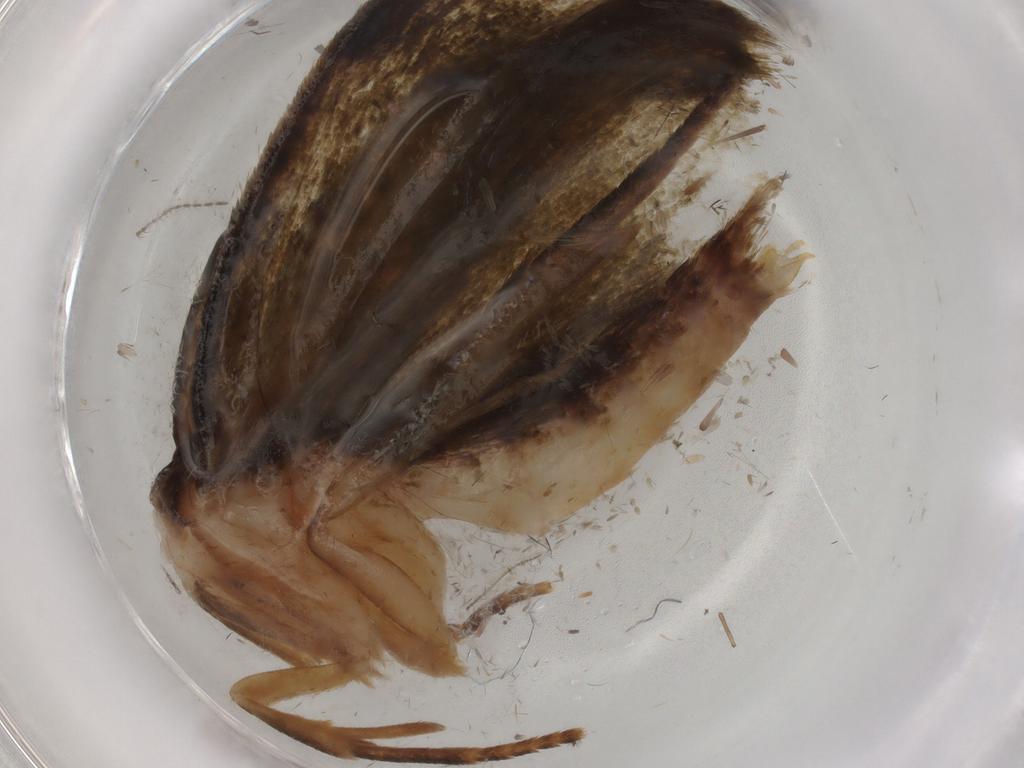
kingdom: Animalia
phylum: Arthropoda
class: Insecta
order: Lepidoptera
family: Geometridae
